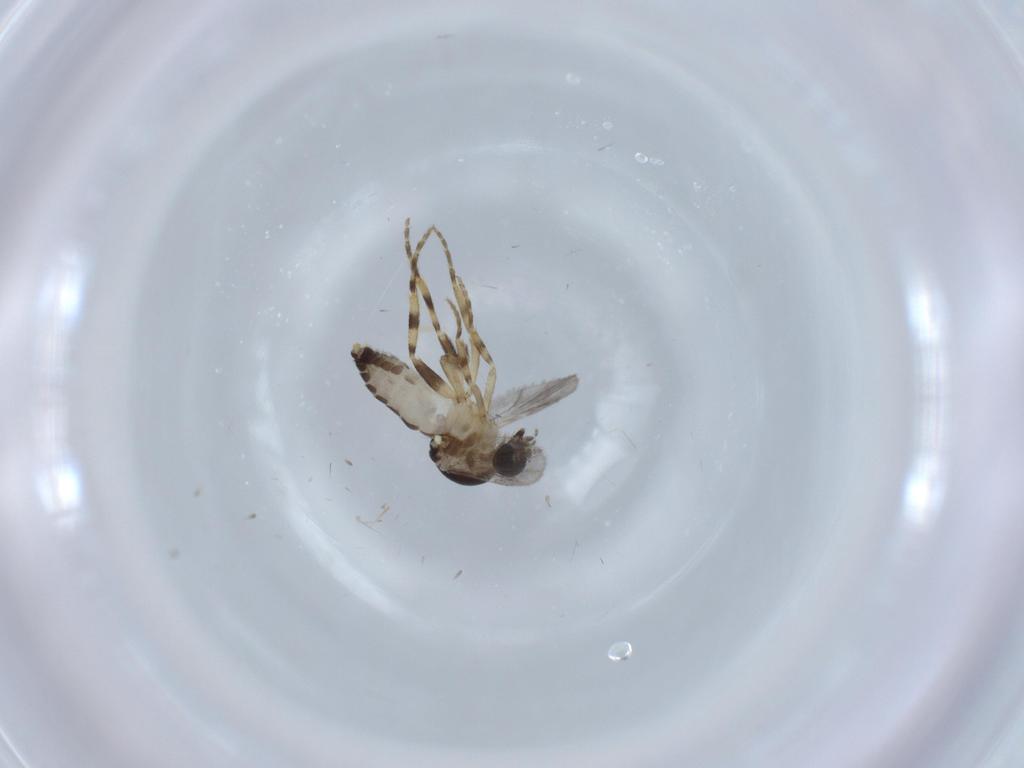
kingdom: Animalia
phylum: Arthropoda
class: Insecta
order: Diptera
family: Ceratopogonidae
